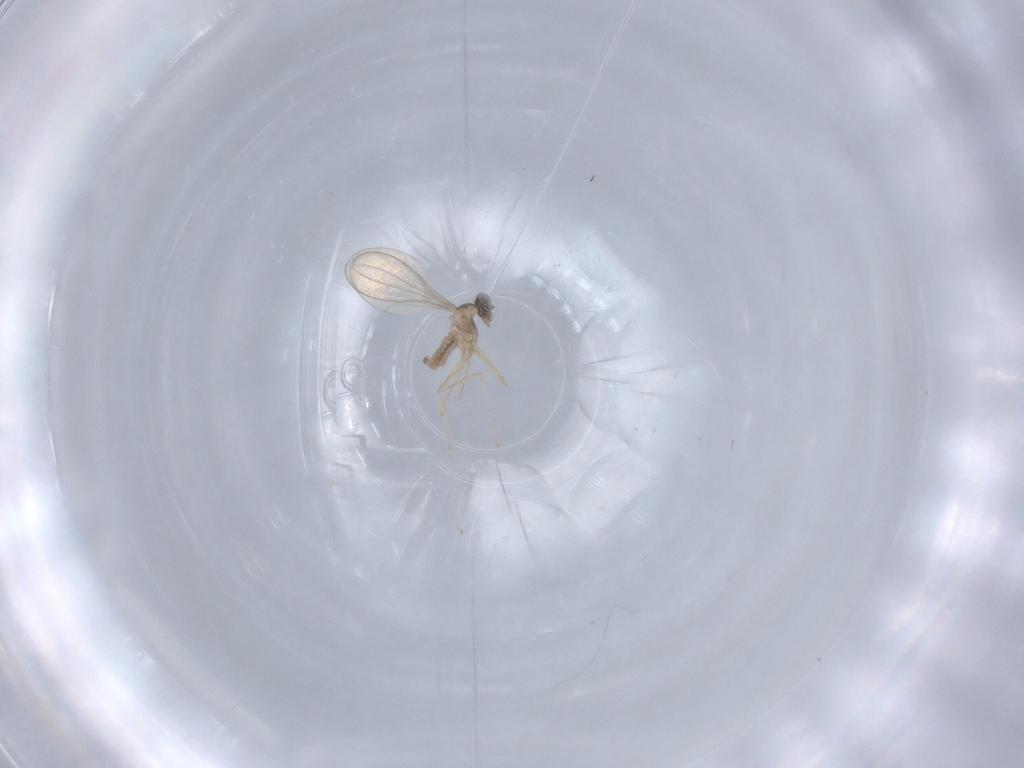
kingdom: Animalia
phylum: Arthropoda
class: Insecta
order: Diptera
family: Cecidomyiidae
